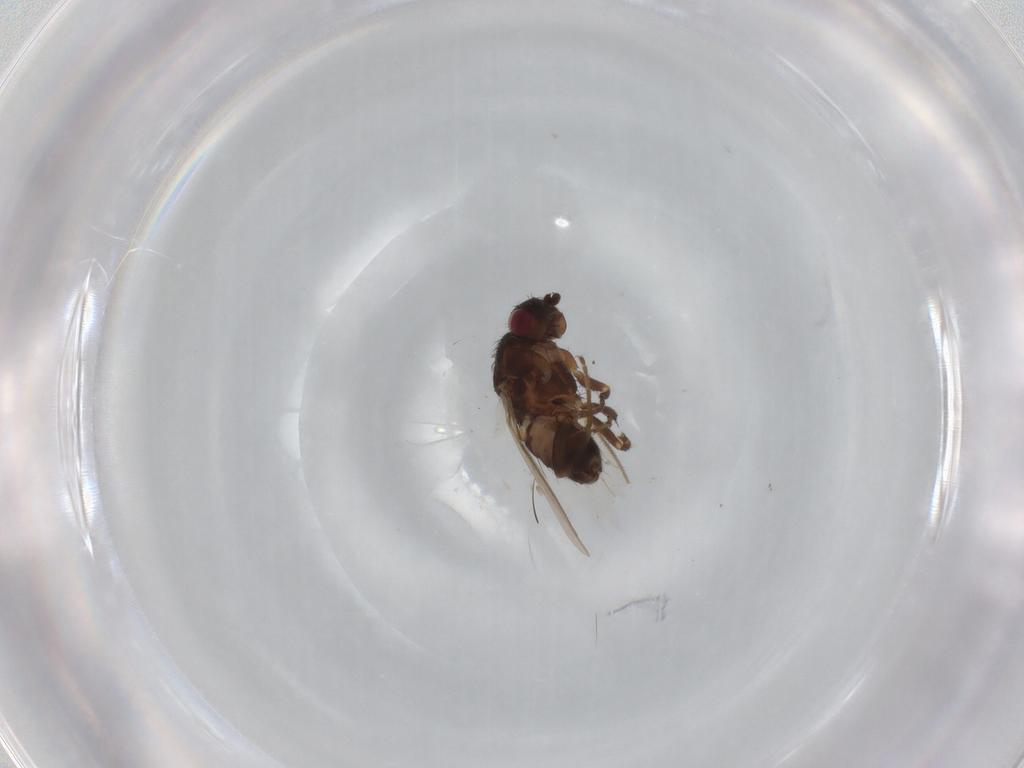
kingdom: Animalia
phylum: Arthropoda
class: Insecta
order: Diptera
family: Sphaeroceridae
